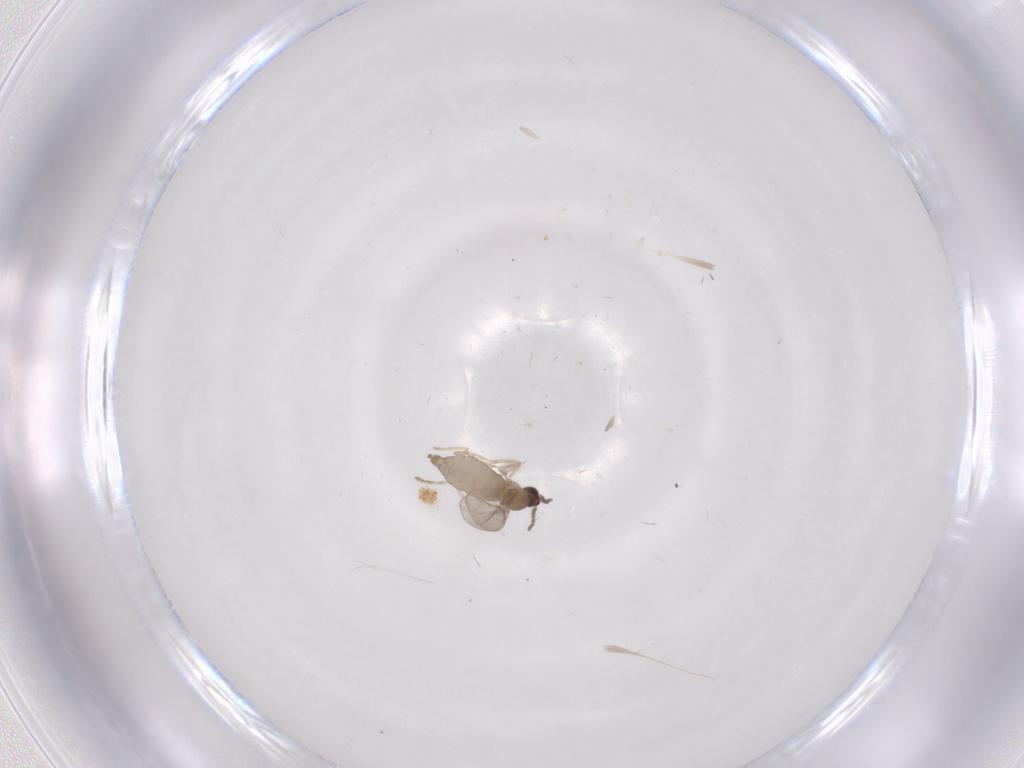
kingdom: Animalia
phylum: Arthropoda
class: Insecta
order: Diptera
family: Cecidomyiidae
